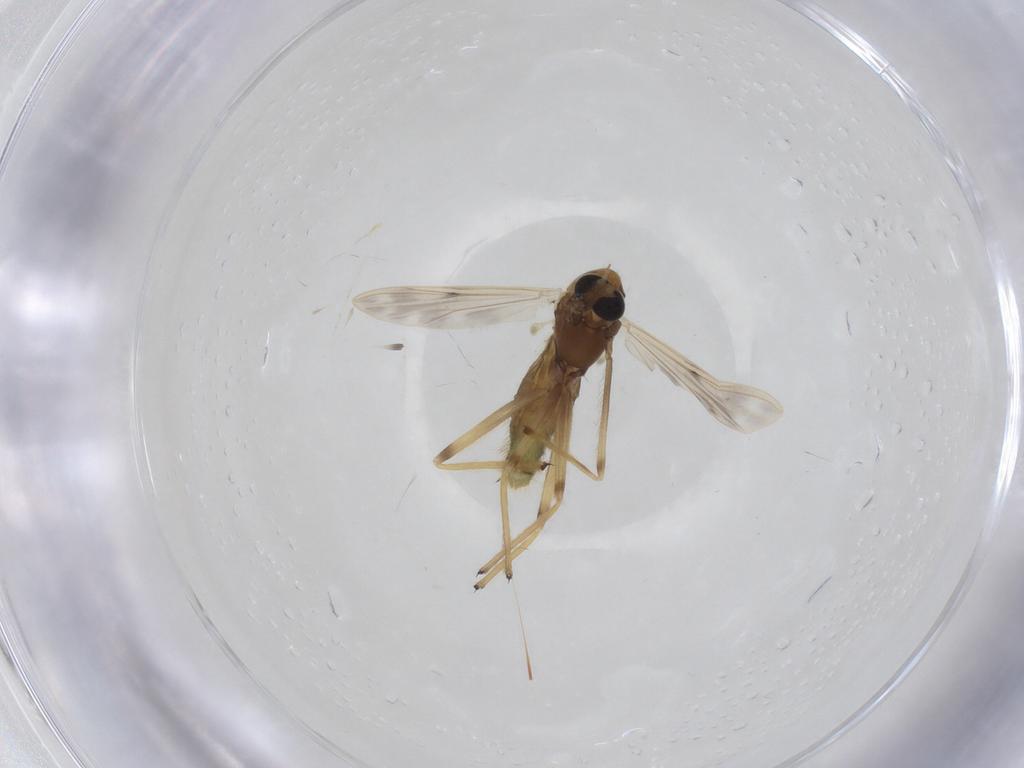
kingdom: Animalia
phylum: Arthropoda
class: Insecta
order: Diptera
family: Chironomidae
